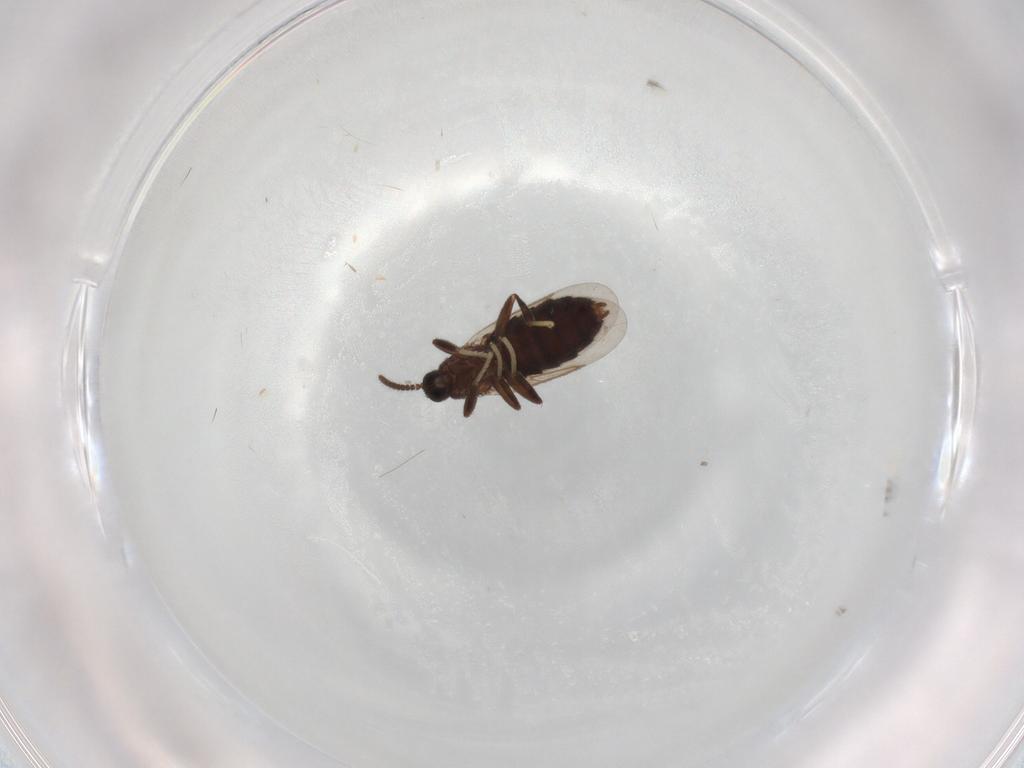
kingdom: Animalia
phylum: Arthropoda
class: Insecta
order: Diptera
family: Scatopsidae
